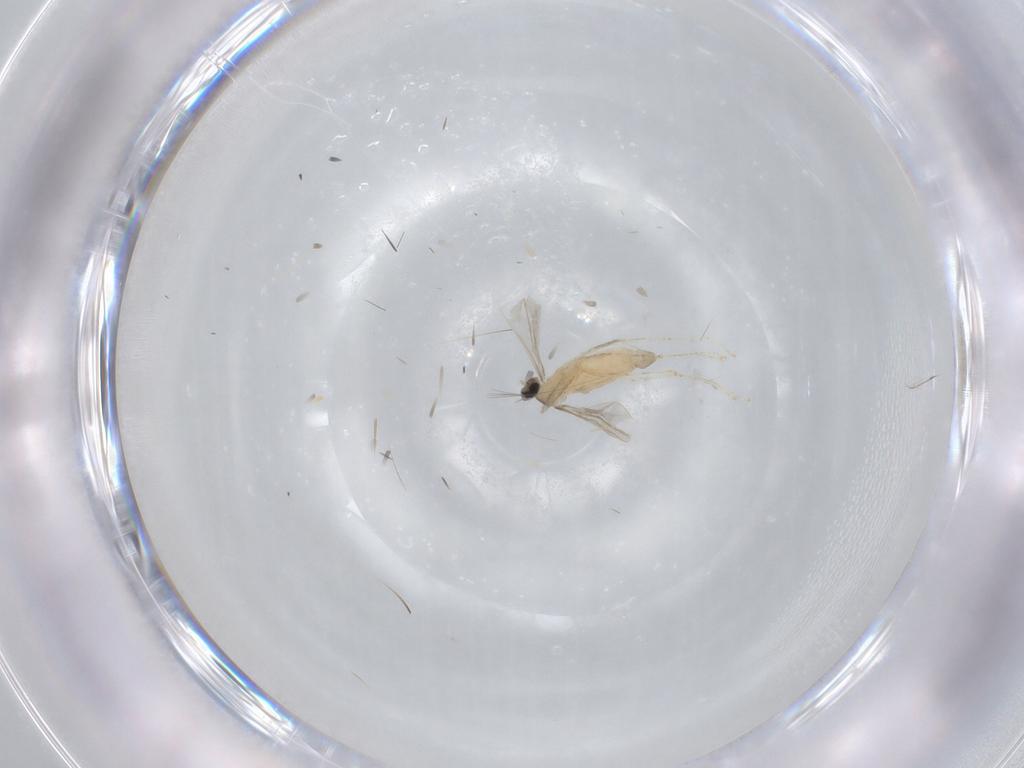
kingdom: Animalia
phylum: Arthropoda
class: Insecta
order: Diptera
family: Cecidomyiidae
